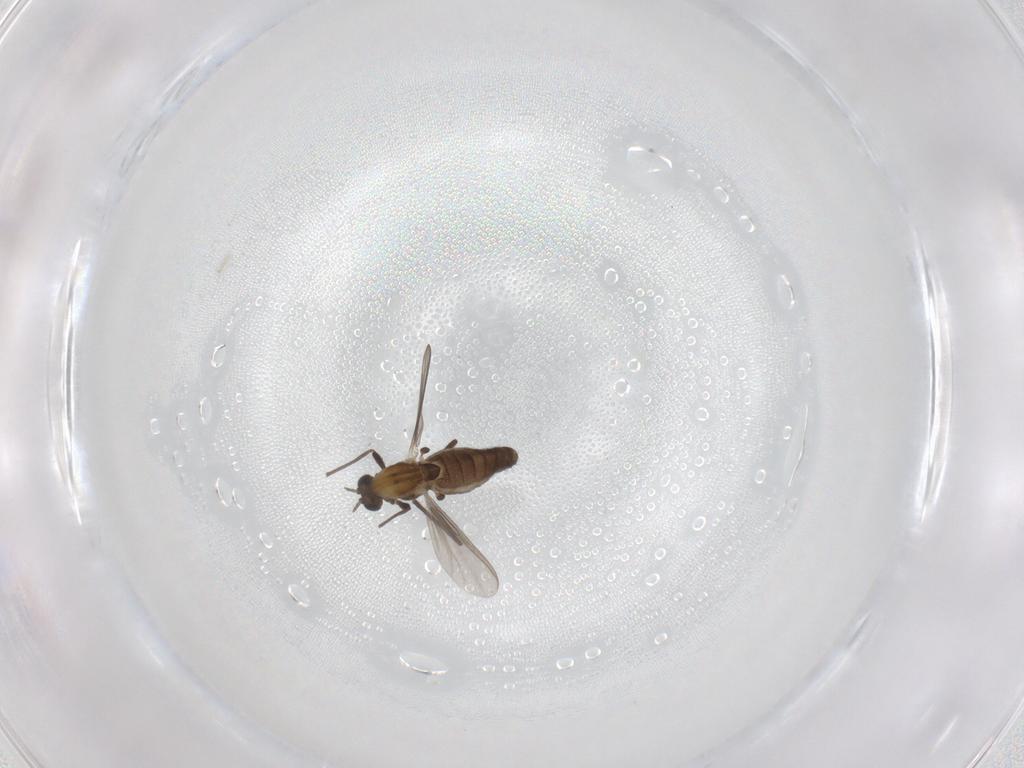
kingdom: Animalia
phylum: Arthropoda
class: Insecta
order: Diptera
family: Chironomidae
